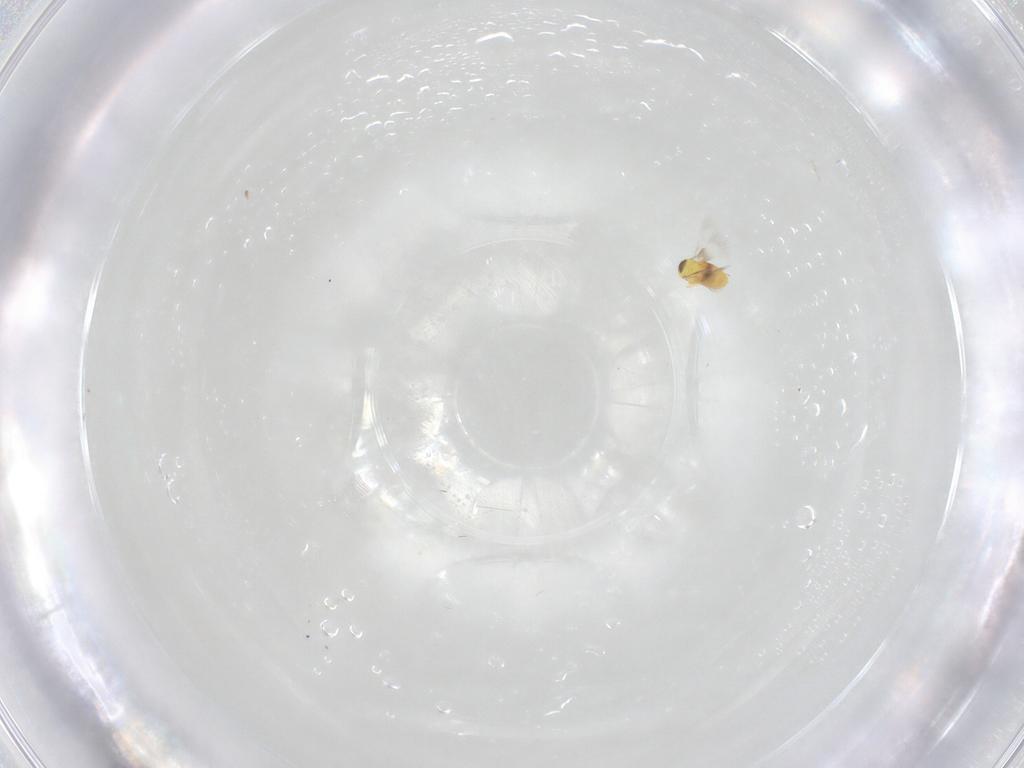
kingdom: Animalia
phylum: Arthropoda
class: Insecta
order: Hymenoptera
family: Signiphoridae
